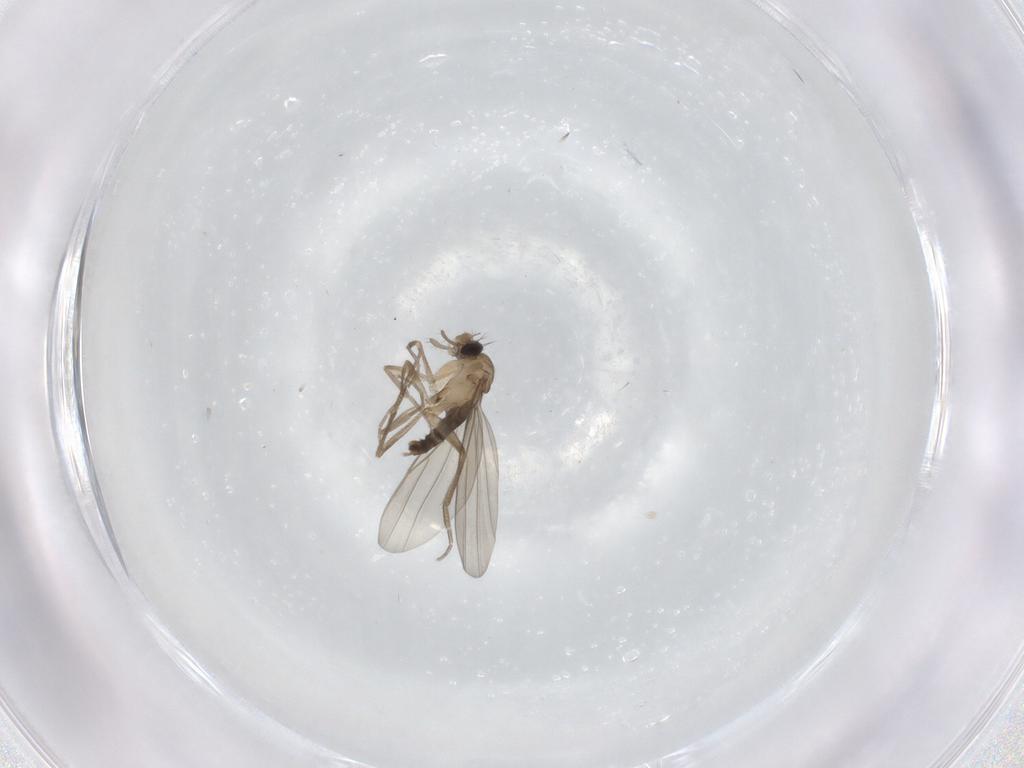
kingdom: Animalia
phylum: Arthropoda
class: Insecta
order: Diptera
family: Phoridae
